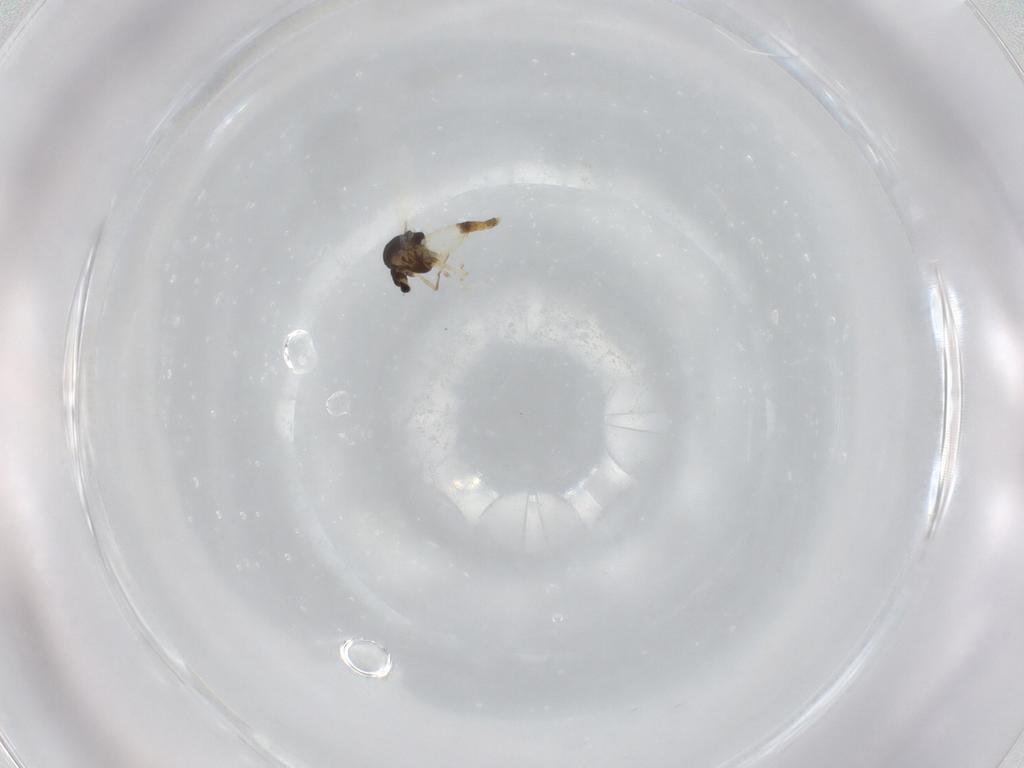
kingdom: Animalia
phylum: Arthropoda
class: Insecta
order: Diptera
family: Chironomidae
